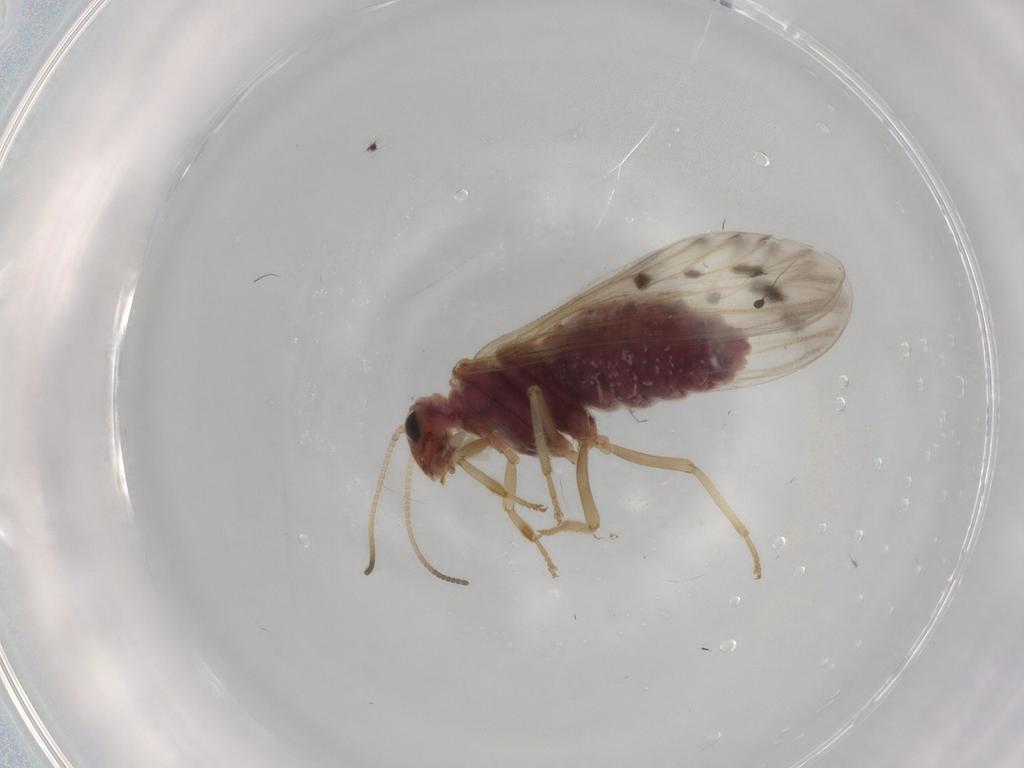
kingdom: Animalia
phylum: Arthropoda
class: Insecta
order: Neuroptera
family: Coniopterygidae
